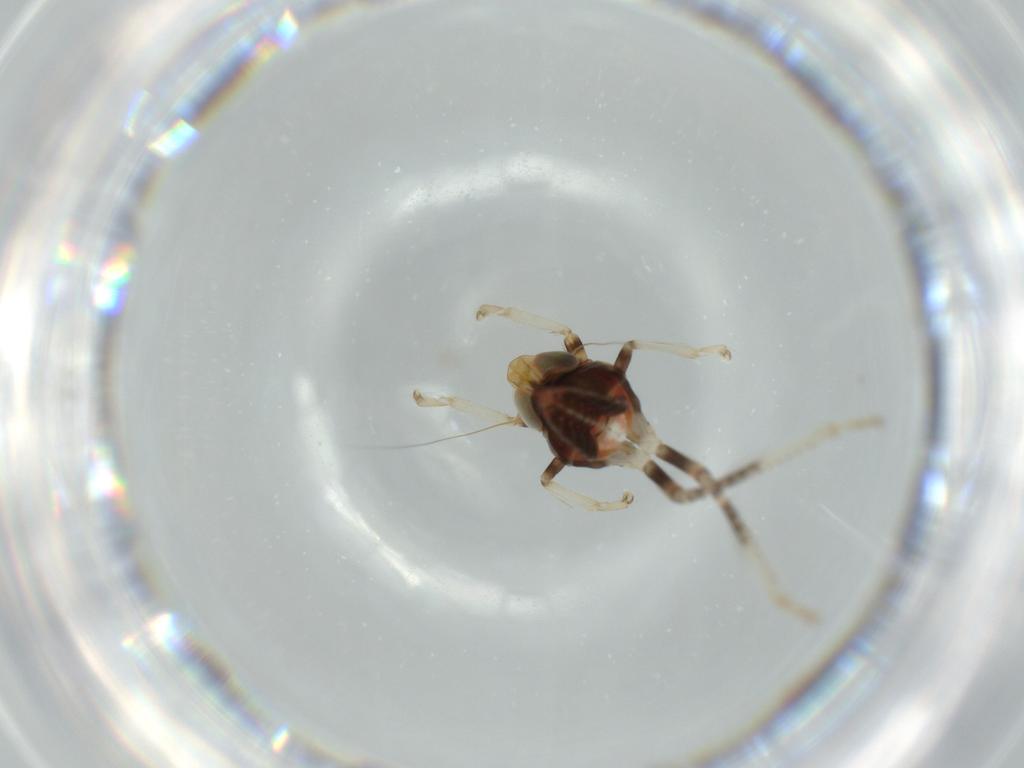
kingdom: Animalia
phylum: Arthropoda
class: Insecta
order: Hemiptera
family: Cicadellidae
